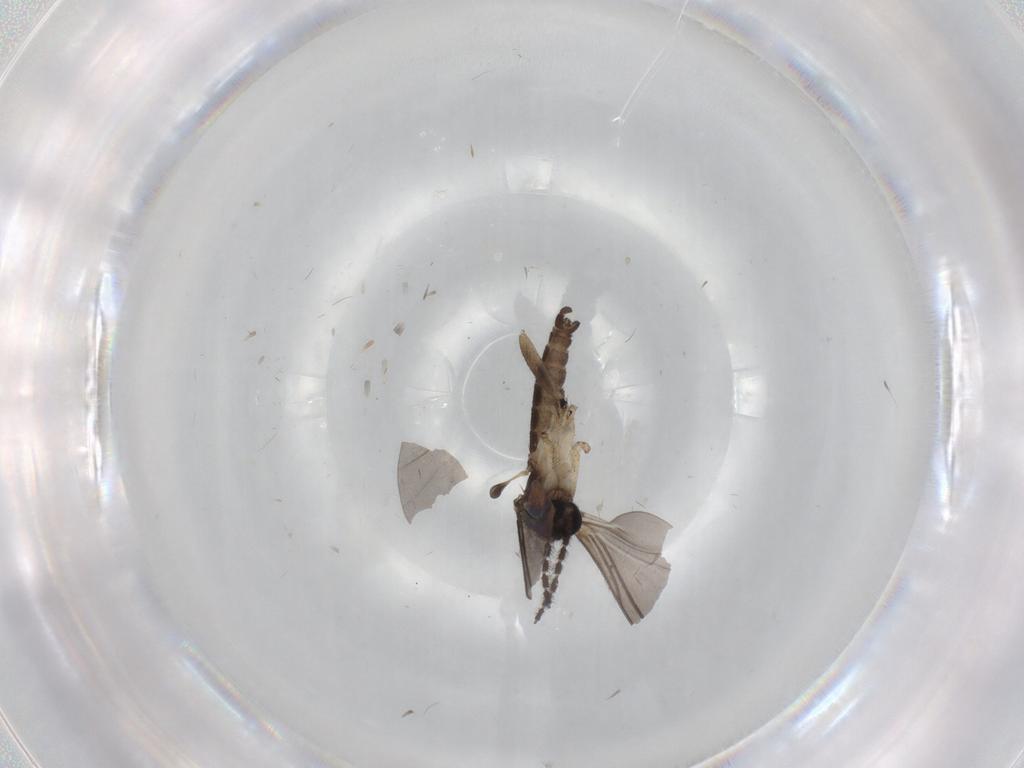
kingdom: Animalia
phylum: Arthropoda
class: Insecta
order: Diptera
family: Sciaridae
